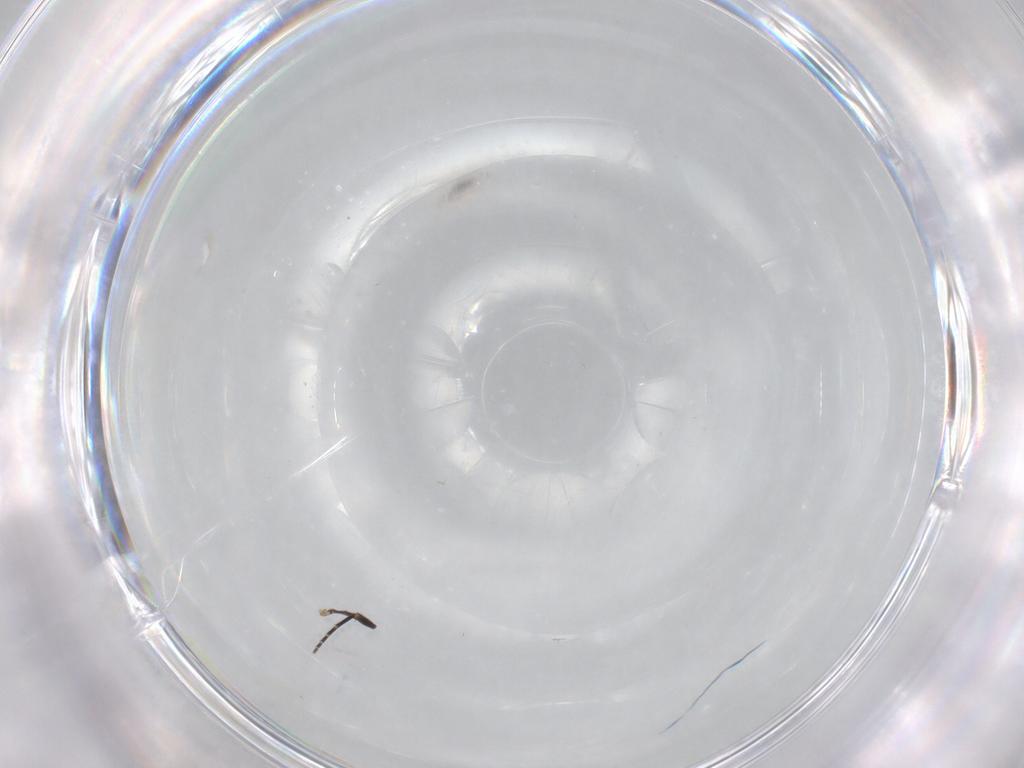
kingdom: Animalia
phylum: Arthropoda
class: Insecta
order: Diptera
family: Phoridae
